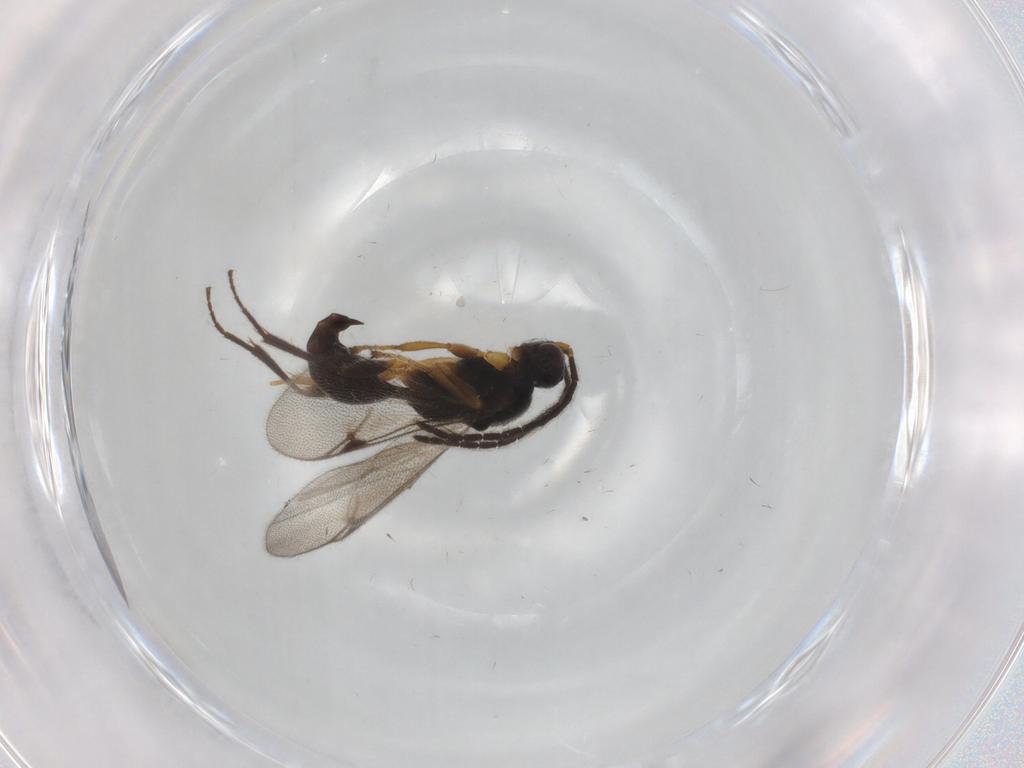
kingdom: Animalia
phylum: Arthropoda
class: Insecta
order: Hymenoptera
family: Proctotrupidae
